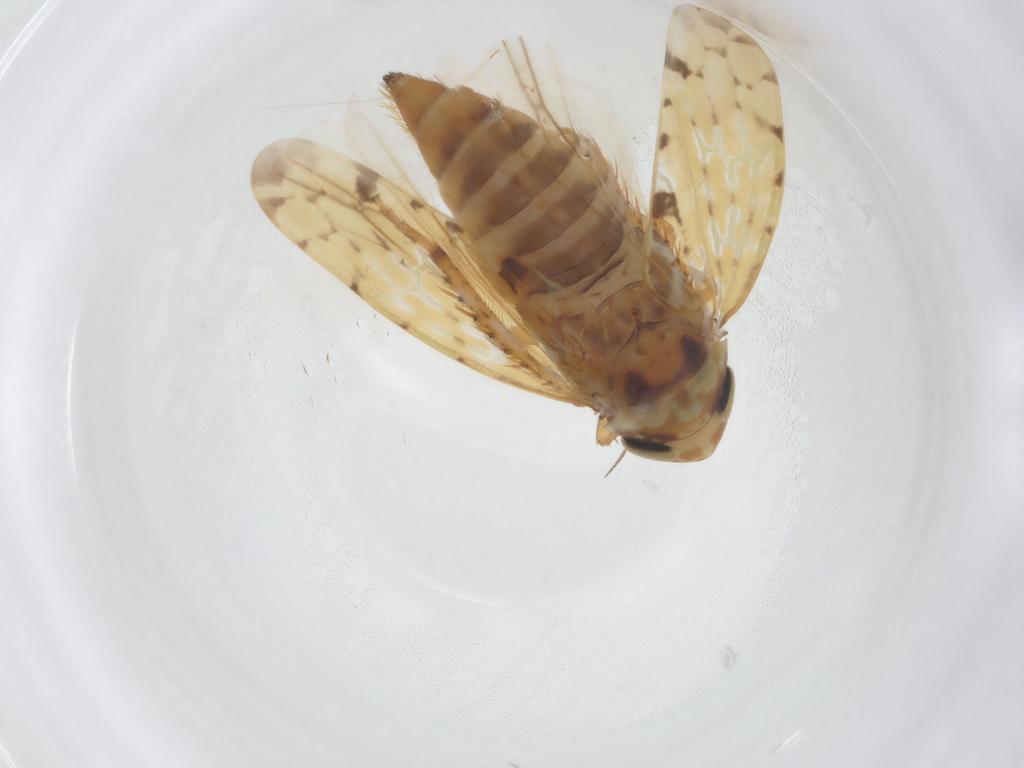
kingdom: Animalia
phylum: Arthropoda
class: Insecta
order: Hemiptera
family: Cicadellidae
